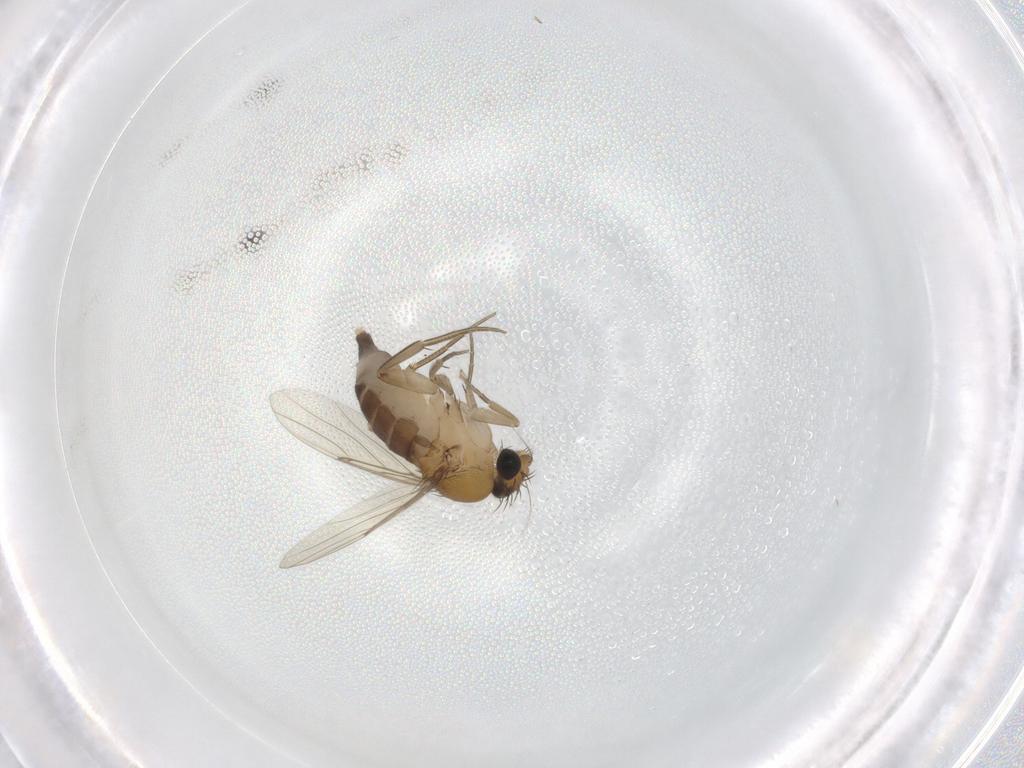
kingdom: Animalia
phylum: Arthropoda
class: Insecta
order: Diptera
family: Phoridae
